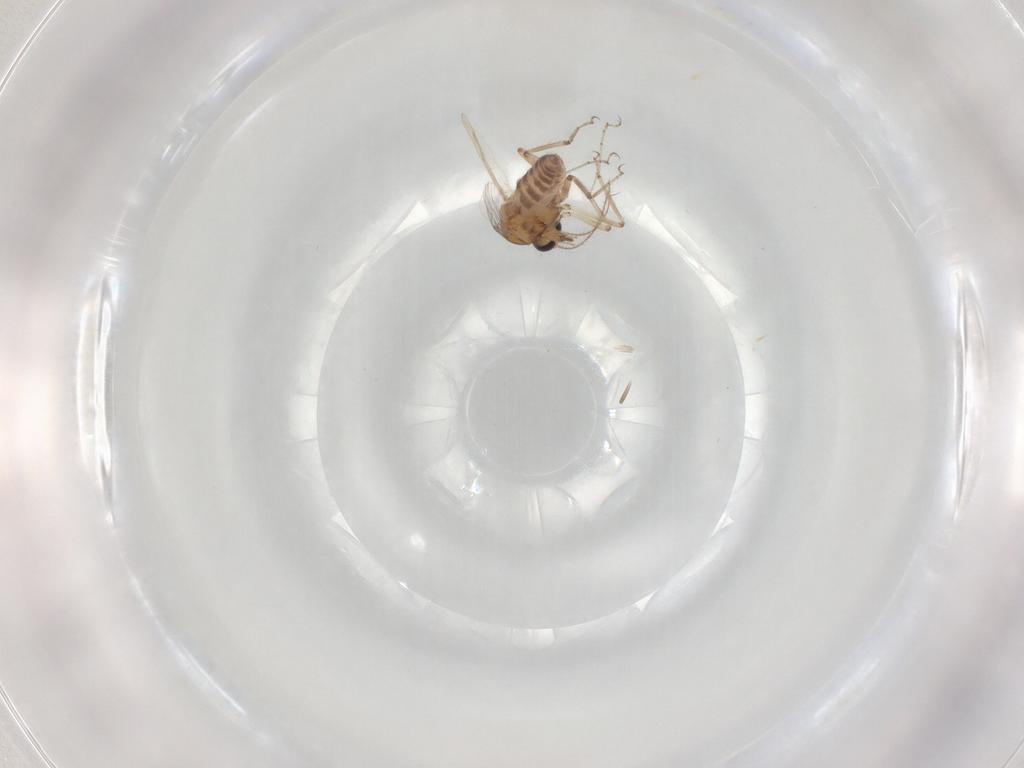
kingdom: Animalia
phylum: Arthropoda
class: Insecta
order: Diptera
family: Ceratopogonidae
